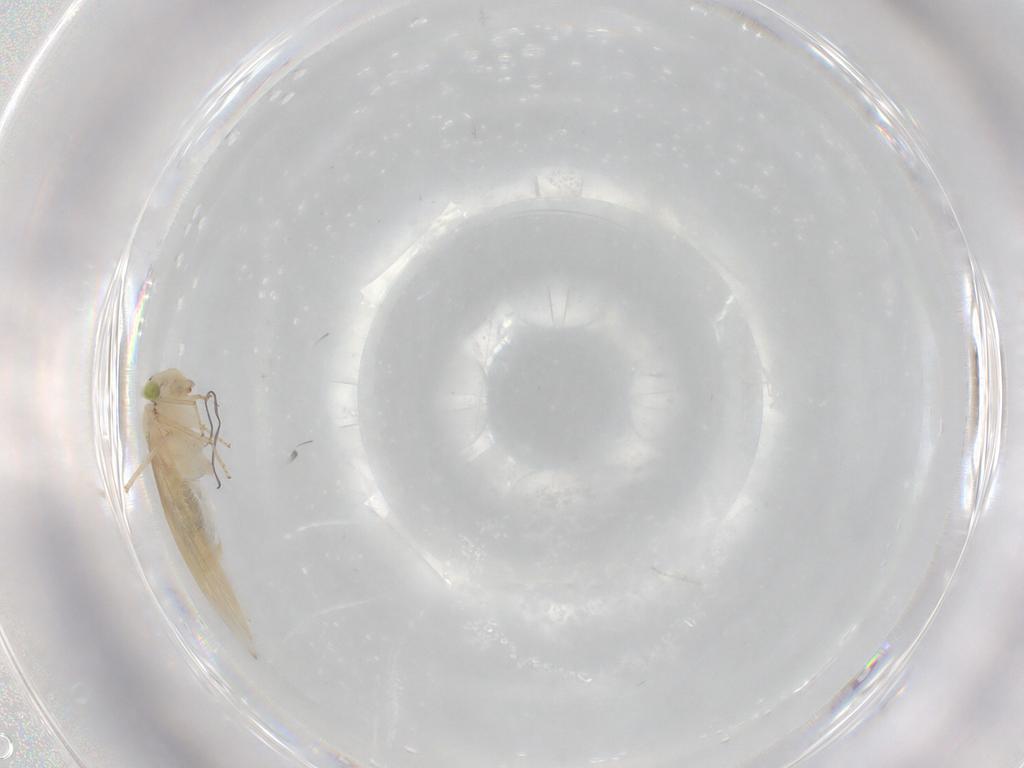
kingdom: Animalia
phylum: Arthropoda
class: Insecta
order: Psocodea
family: Lepidopsocidae
